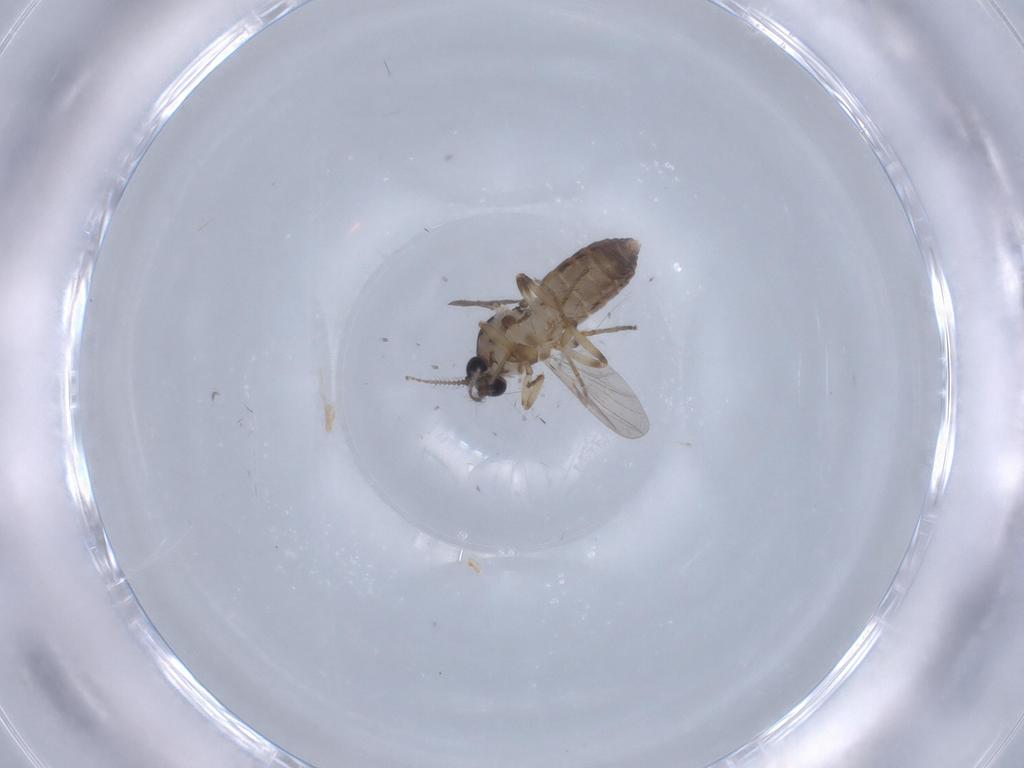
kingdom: Animalia
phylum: Arthropoda
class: Insecta
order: Diptera
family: Ceratopogonidae
